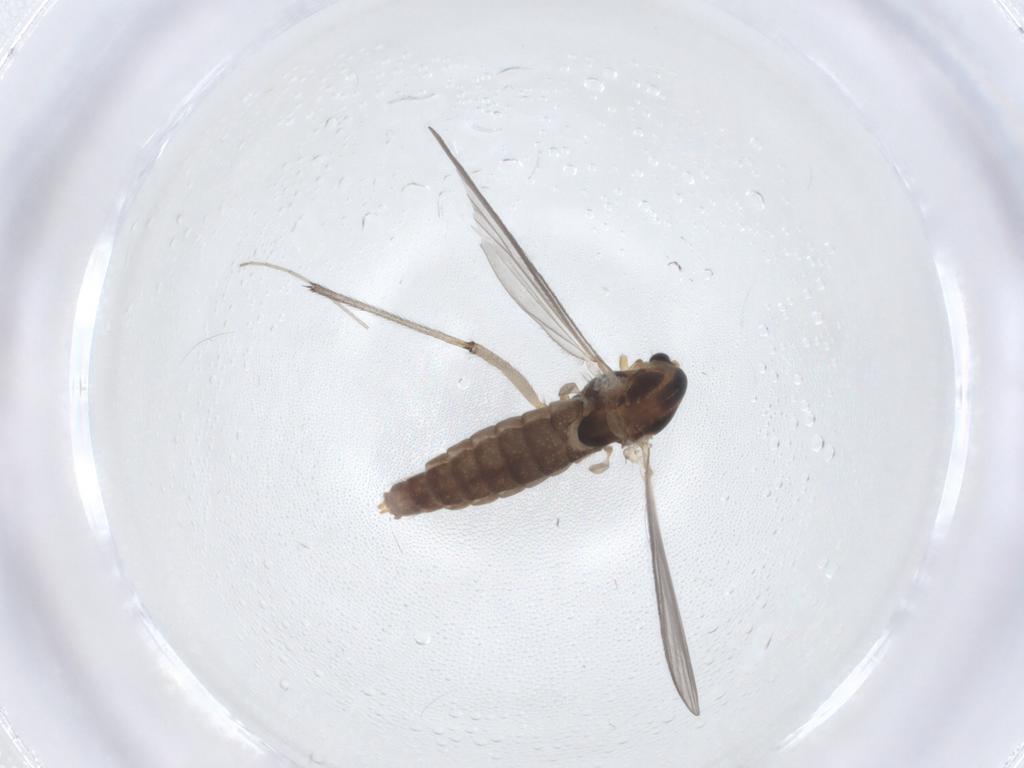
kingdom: Animalia
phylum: Arthropoda
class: Insecta
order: Diptera
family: Chironomidae
